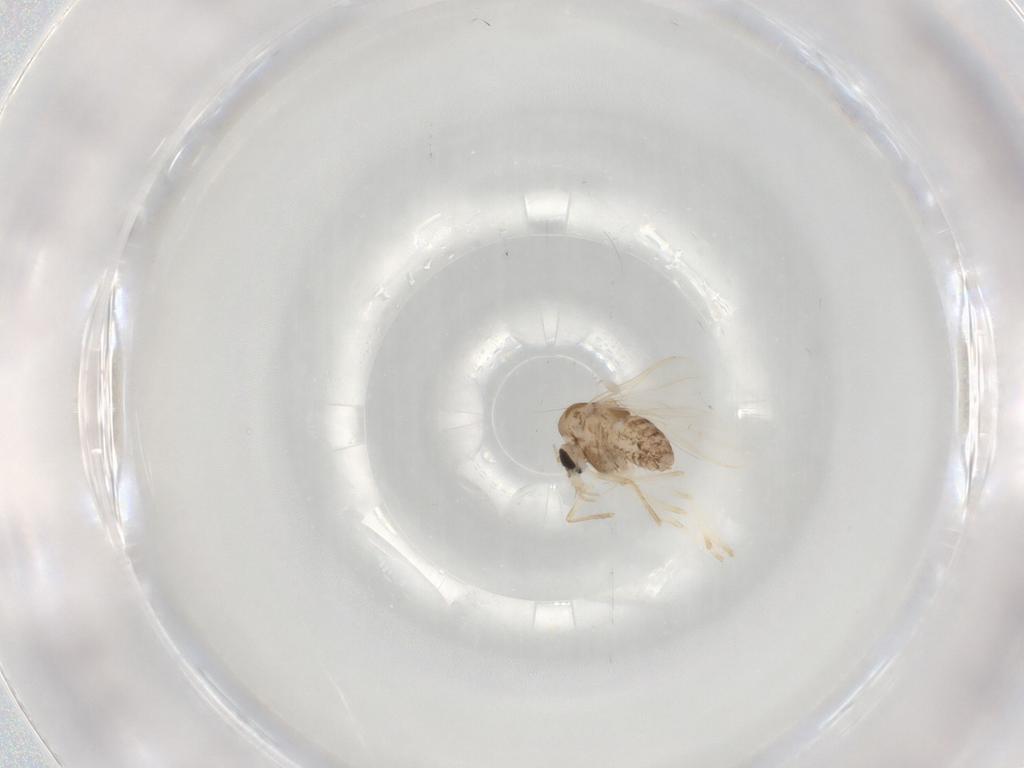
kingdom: Animalia
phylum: Arthropoda
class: Insecta
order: Diptera
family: Chironomidae
